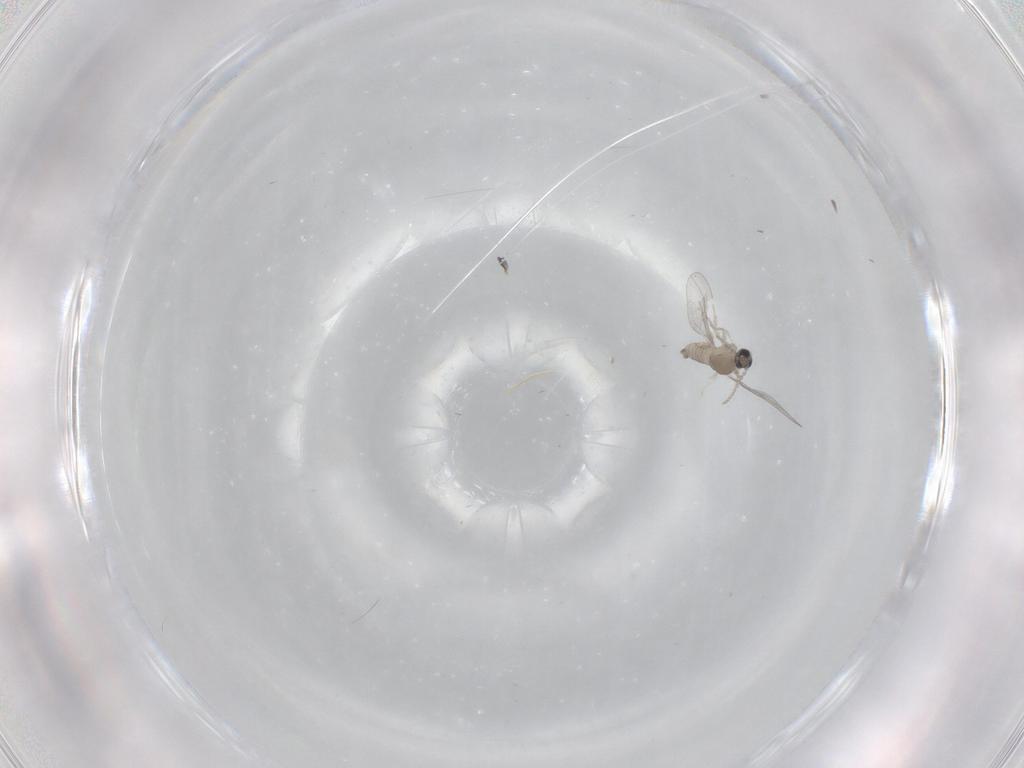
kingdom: Animalia
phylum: Arthropoda
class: Insecta
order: Diptera
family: Cecidomyiidae
